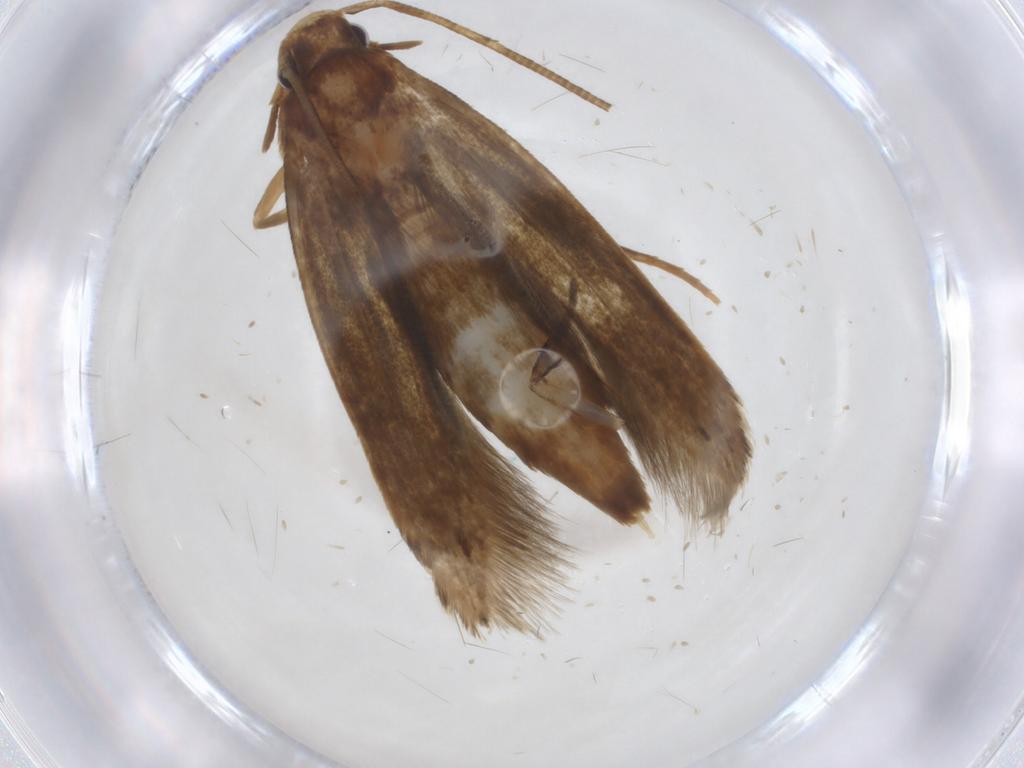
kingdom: Animalia
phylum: Arthropoda
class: Insecta
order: Lepidoptera
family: Tineidae
